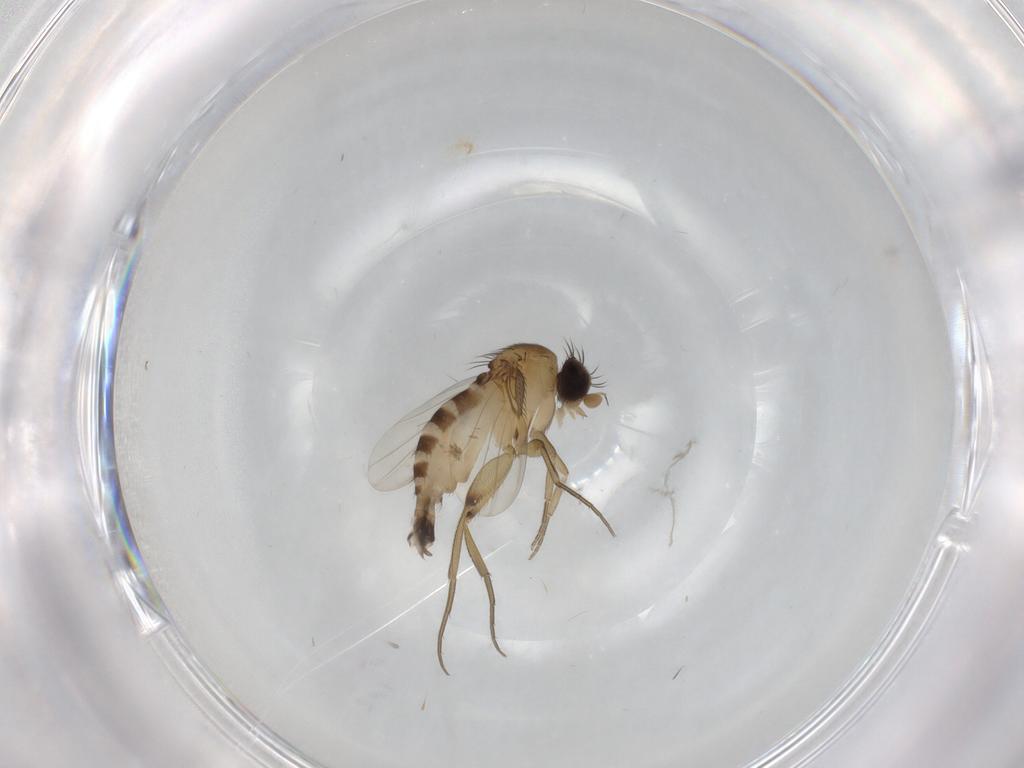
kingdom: Animalia
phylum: Arthropoda
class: Insecta
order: Diptera
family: Phoridae
